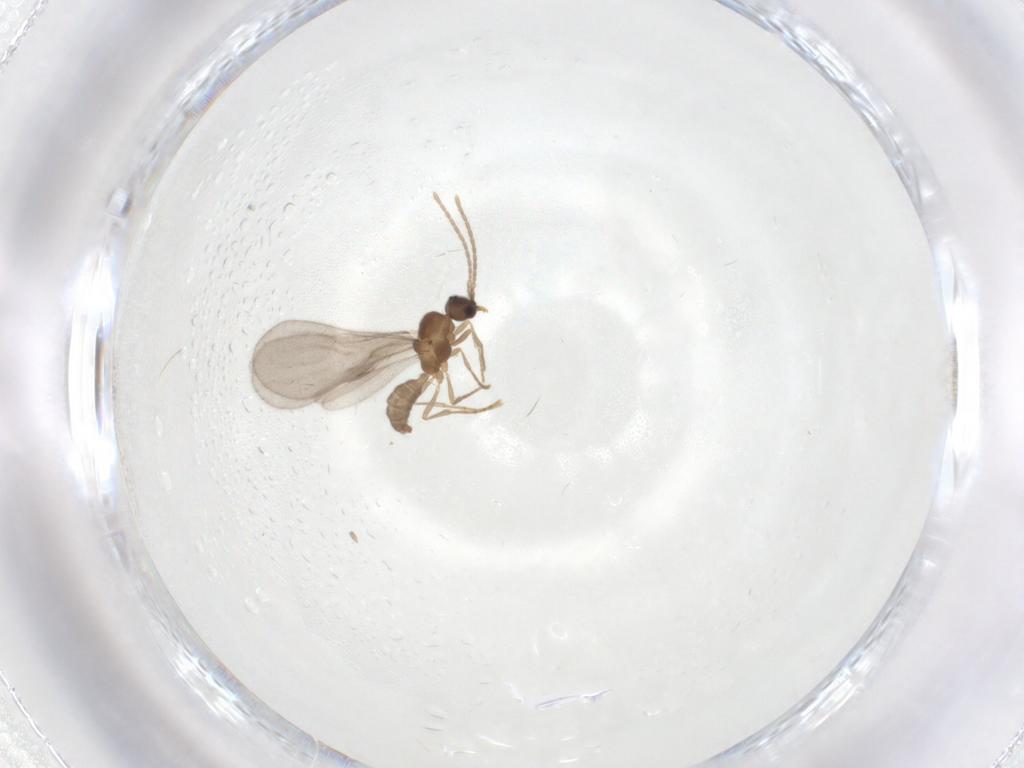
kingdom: Animalia
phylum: Arthropoda
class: Insecta
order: Hymenoptera
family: Formicidae
